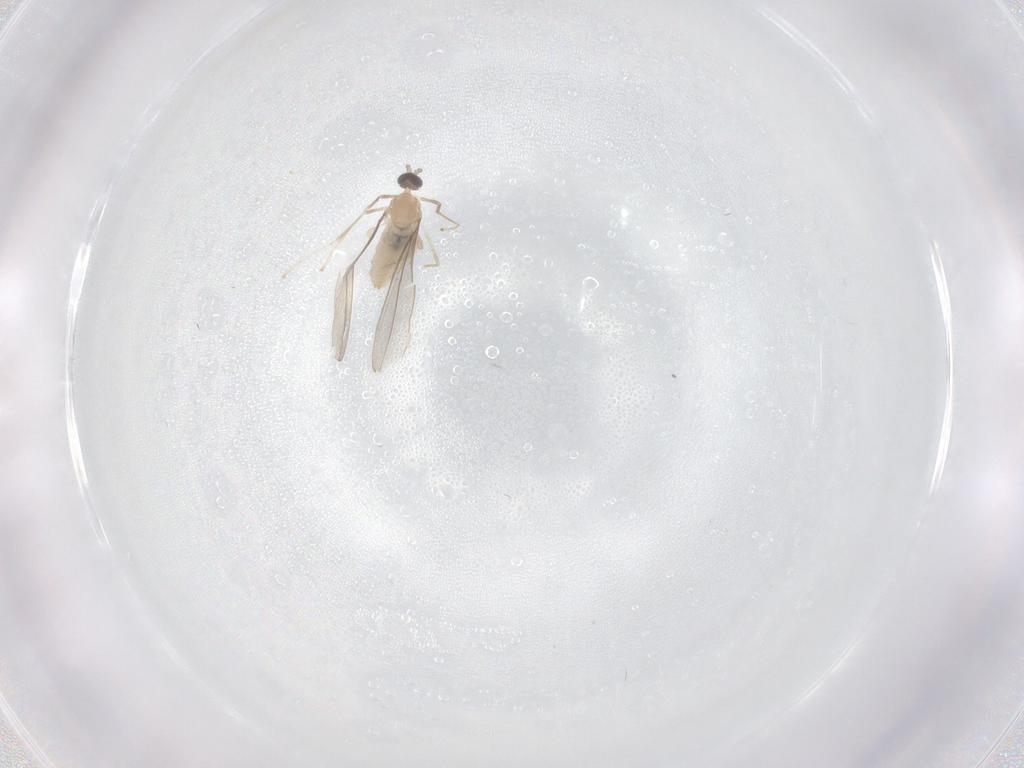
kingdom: Animalia
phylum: Arthropoda
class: Insecta
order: Diptera
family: Cecidomyiidae
